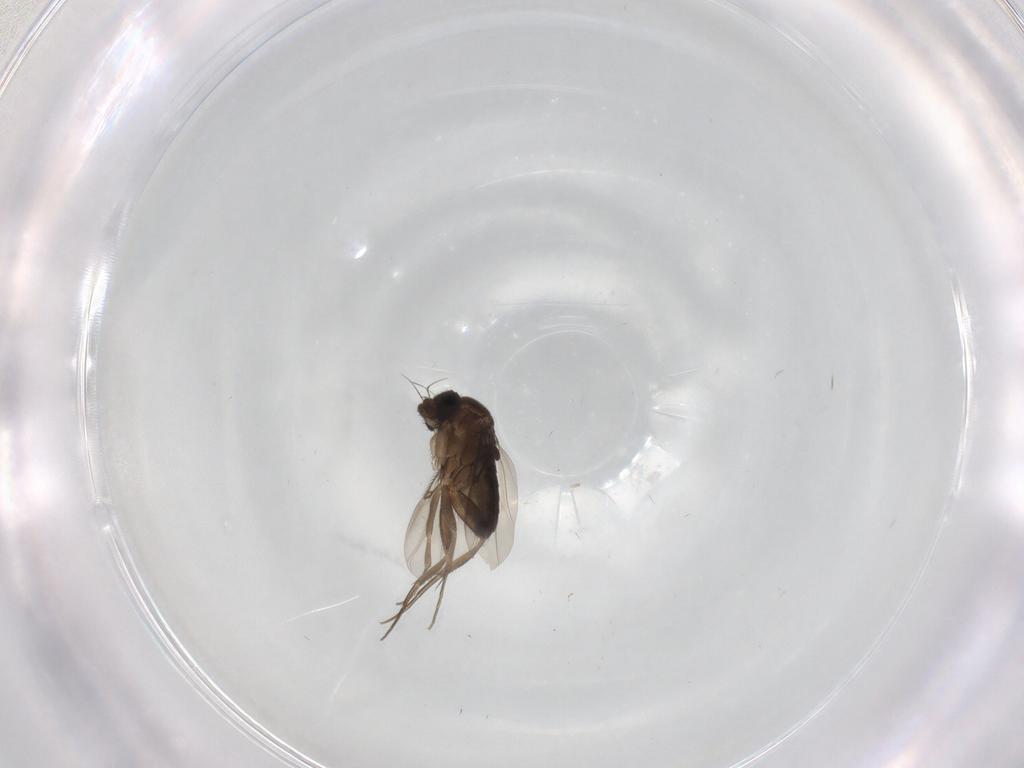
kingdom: Animalia
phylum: Arthropoda
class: Insecta
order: Diptera
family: Phoridae
